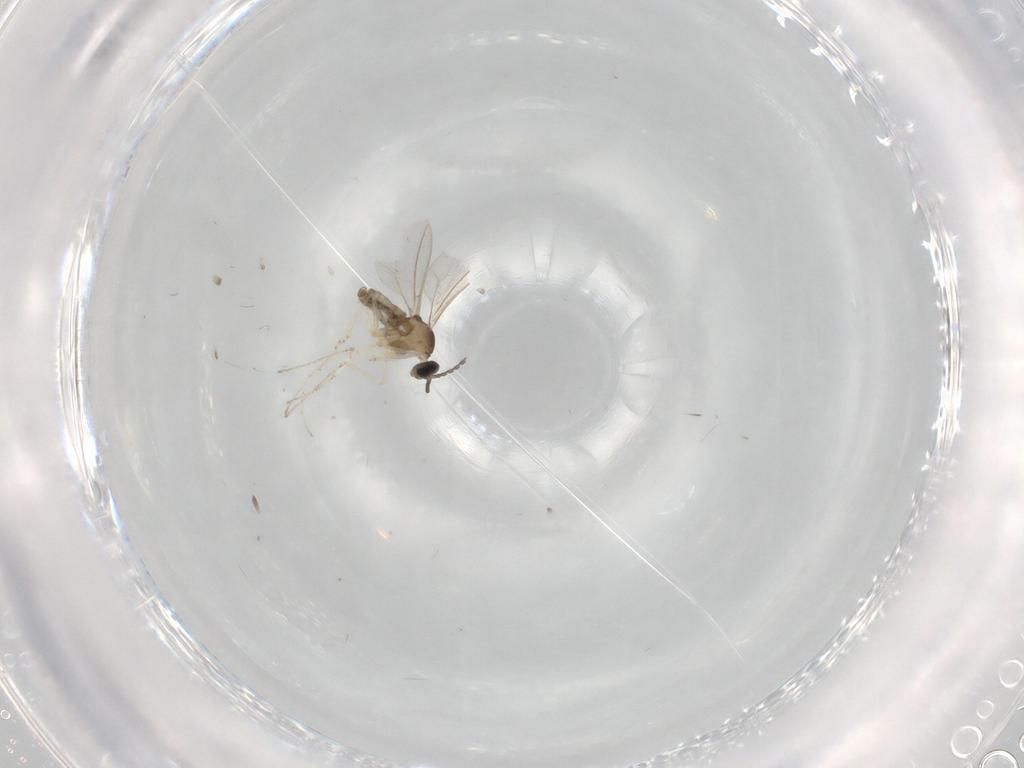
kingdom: Animalia
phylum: Arthropoda
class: Insecta
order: Diptera
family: Cecidomyiidae
